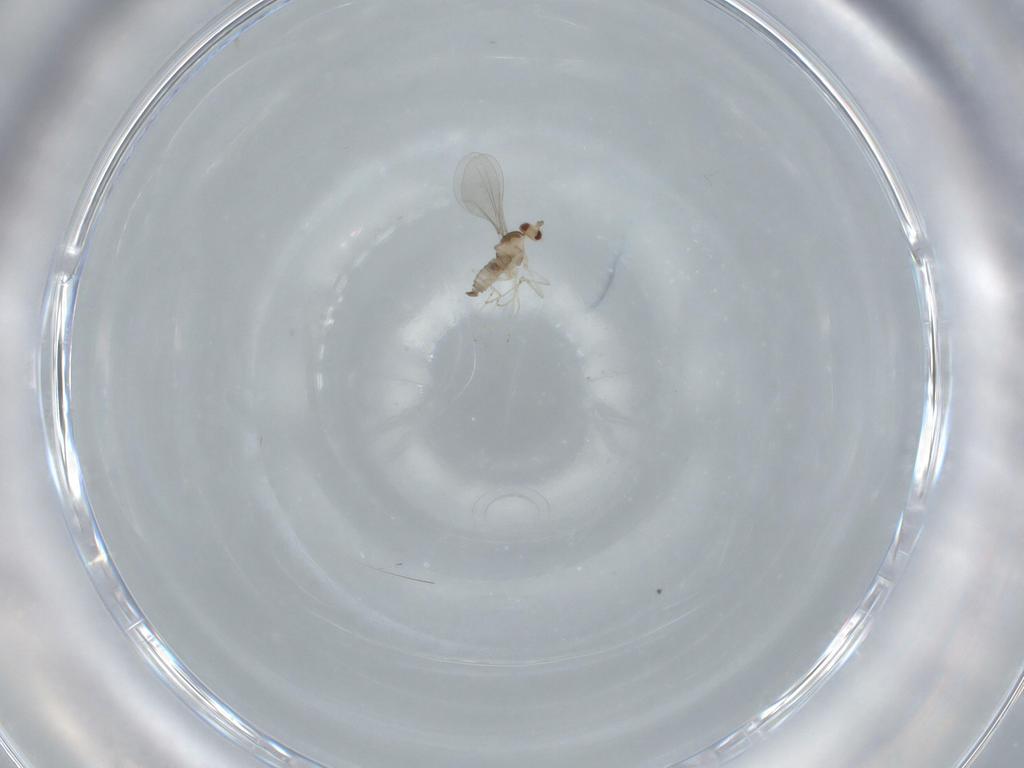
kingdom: Animalia
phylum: Arthropoda
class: Insecta
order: Diptera
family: Cecidomyiidae
